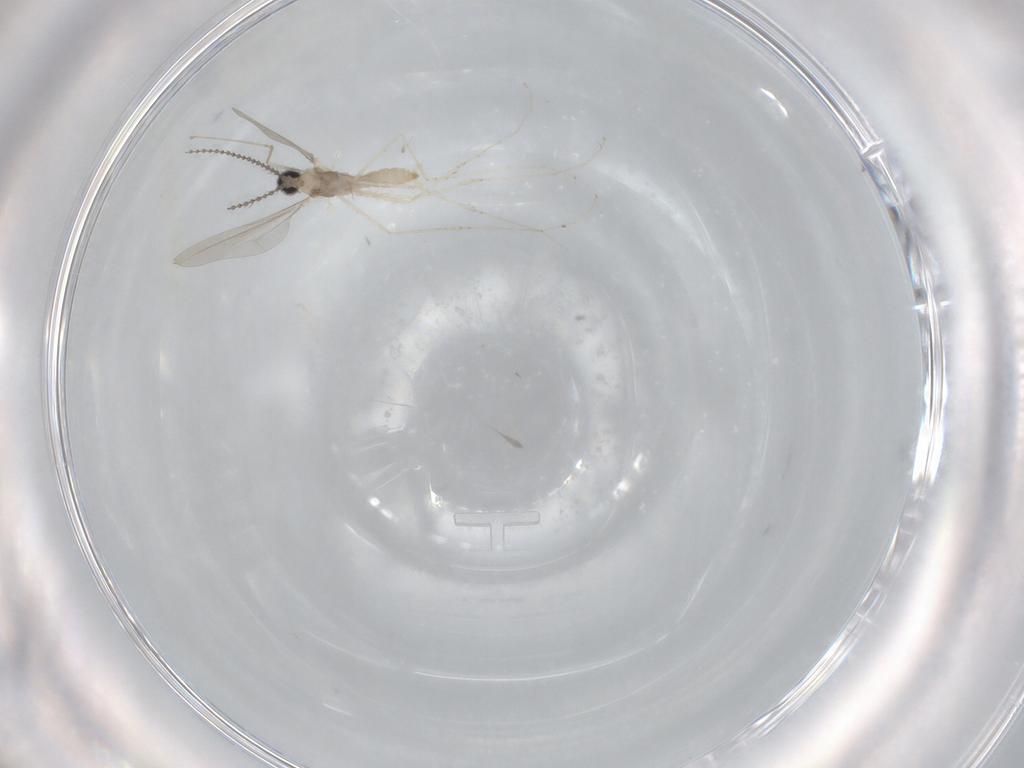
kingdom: Animalia
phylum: Arthropoda
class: Insecta
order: Diptera
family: Cecidomyiidae
